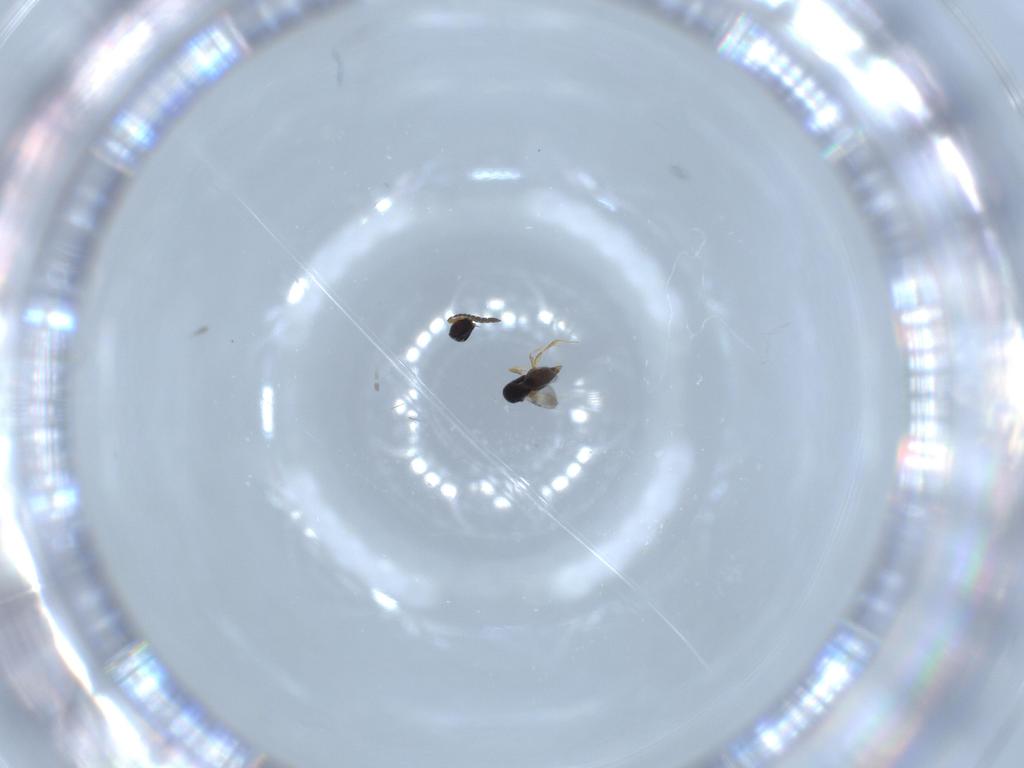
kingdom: Animalia
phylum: Arthropoda
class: Insecta
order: Hymenoptera
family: Ceraphronidae
